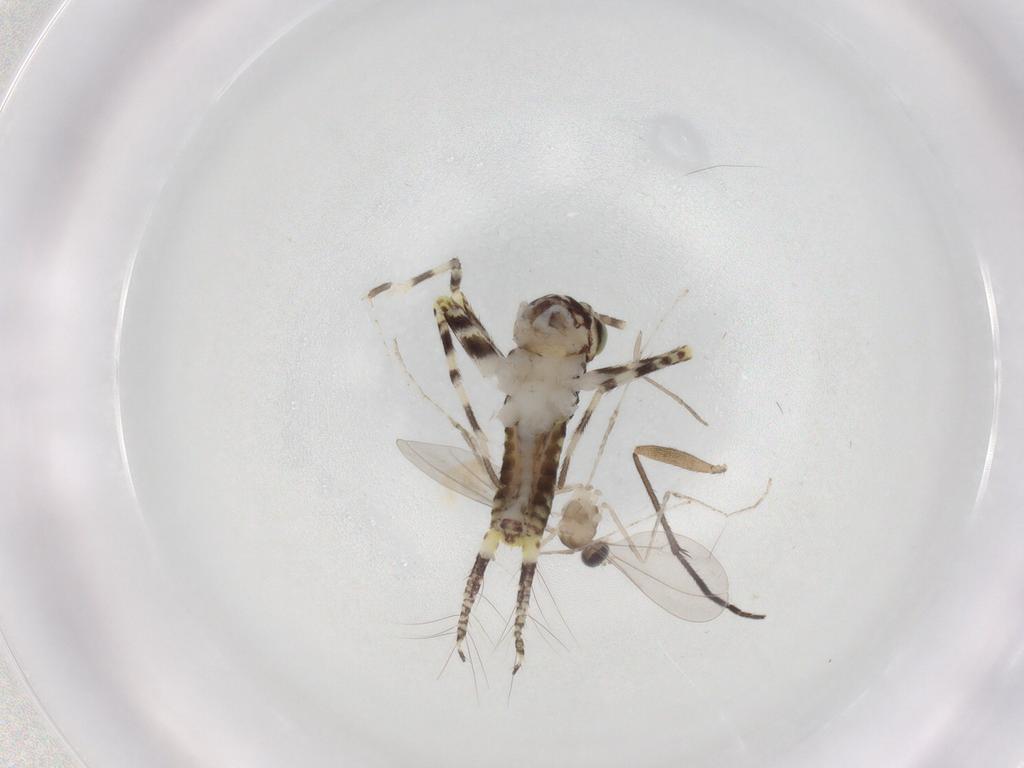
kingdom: Animalia
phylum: Arthropoda
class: Insecta
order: Orthoptera
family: Gryllidae
